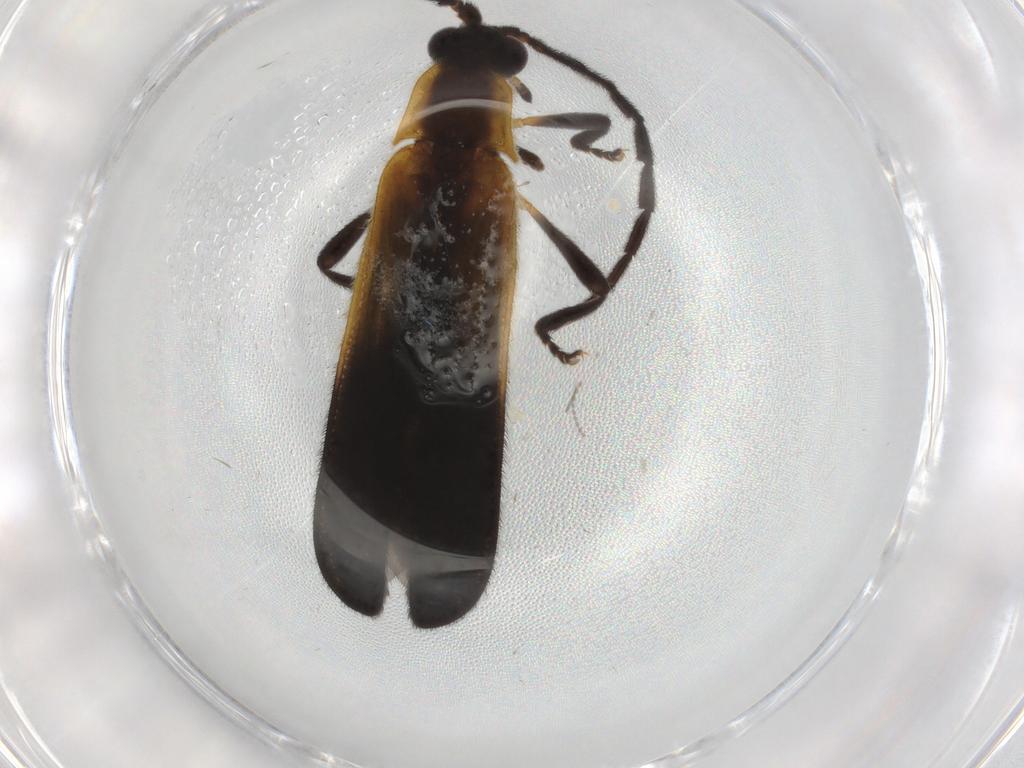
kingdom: Animalia
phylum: Arthropoda
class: Insecta
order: Coleoptera
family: Lycidae
